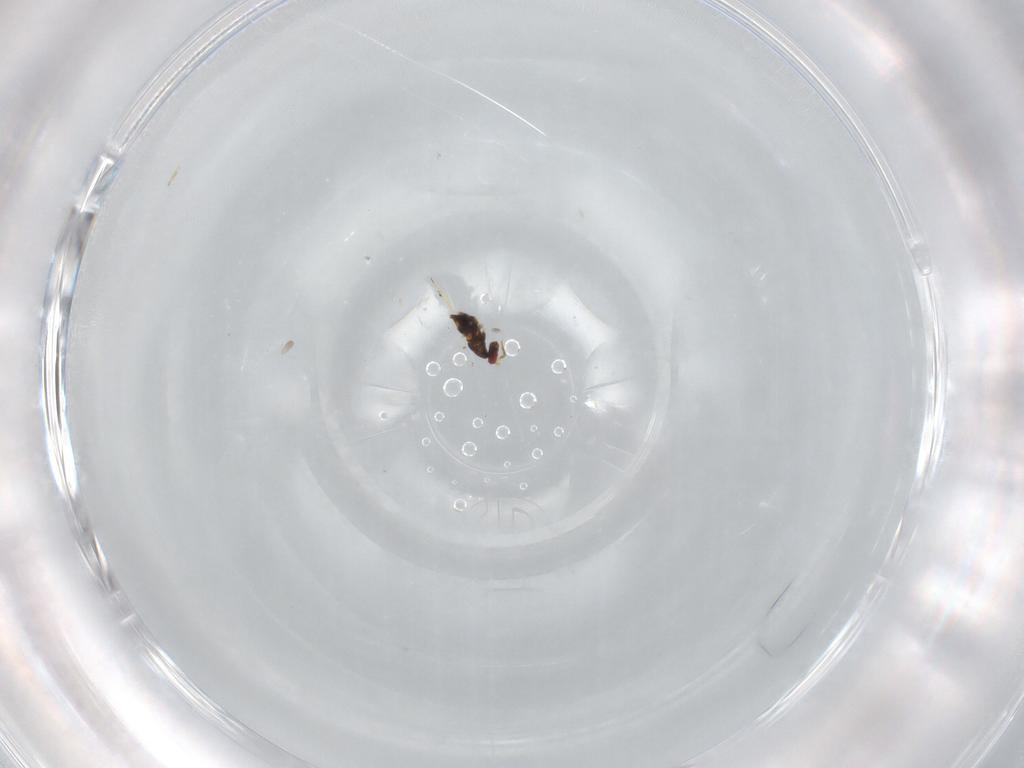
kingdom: Animalia
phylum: Arthropoda
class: Insecta
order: Hymenoptera
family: Trichogrammatidae
